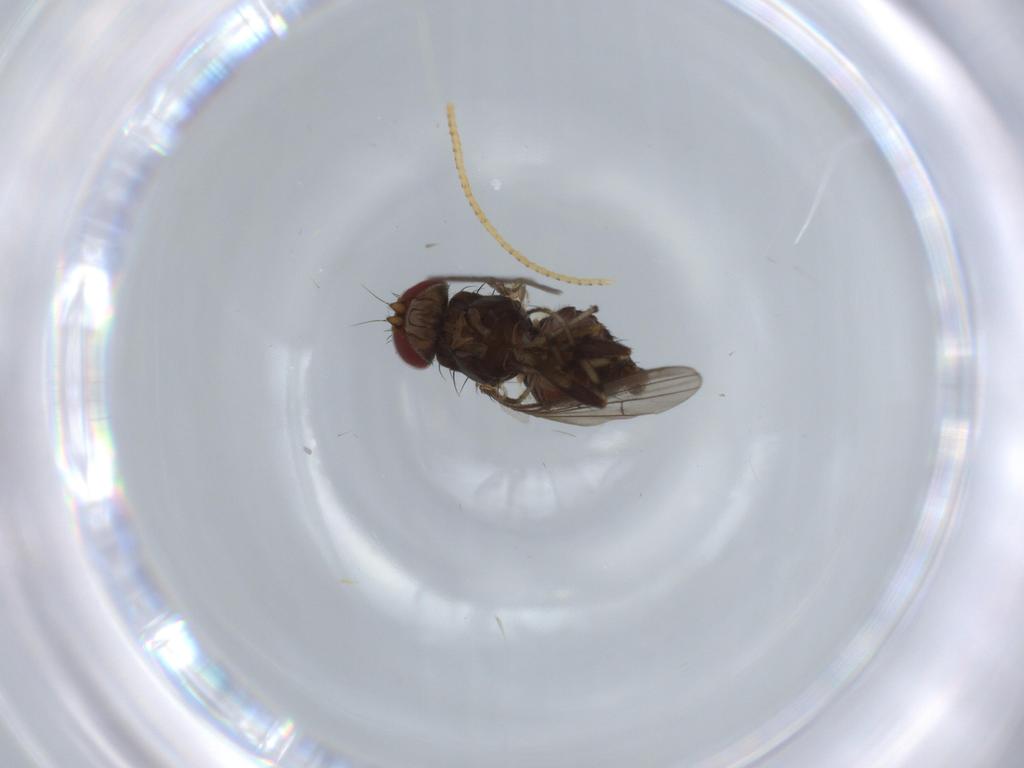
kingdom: Animalia
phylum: Arthropoda
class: Insecta
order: Diptera
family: Heleomyzidae
